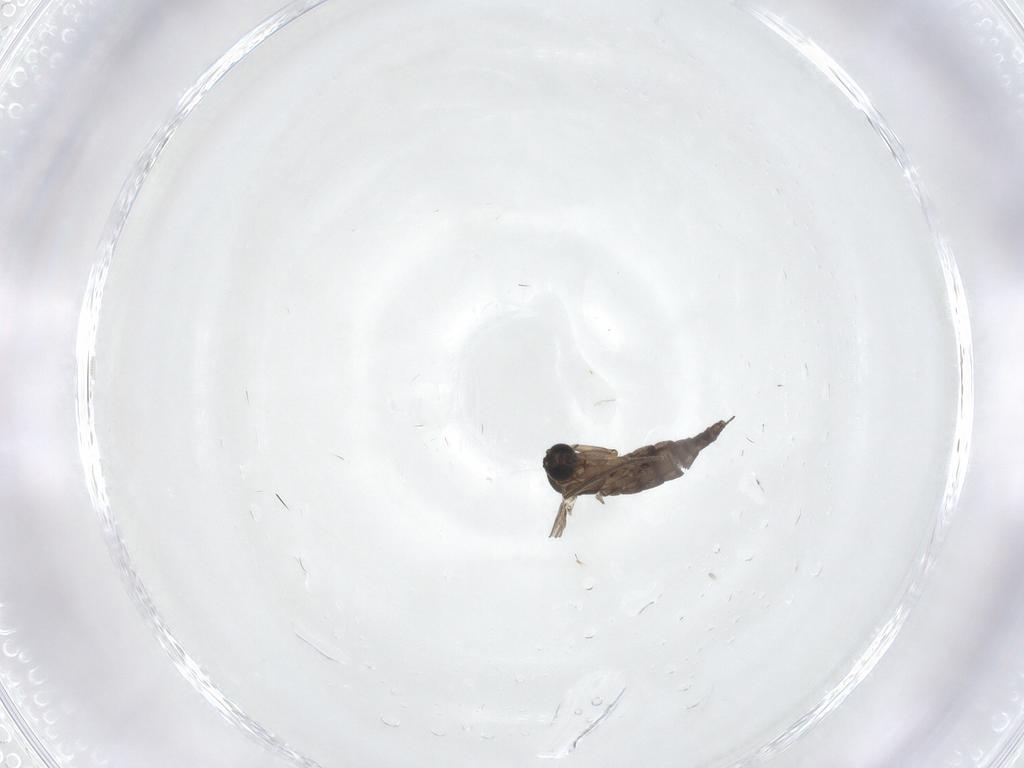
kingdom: Animalia
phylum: Arthropoda
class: Insecta
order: Diptera
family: Sciaridae
